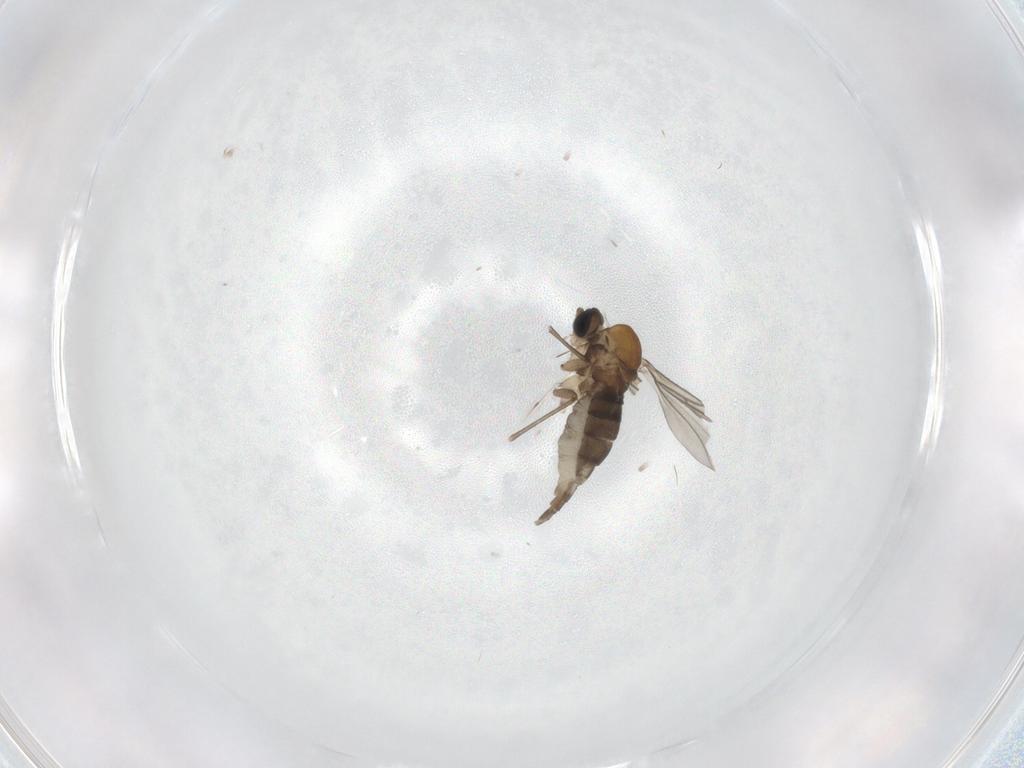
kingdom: Animalia
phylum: Arthropoda
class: Insecta
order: Diptera
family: Sciaridae
